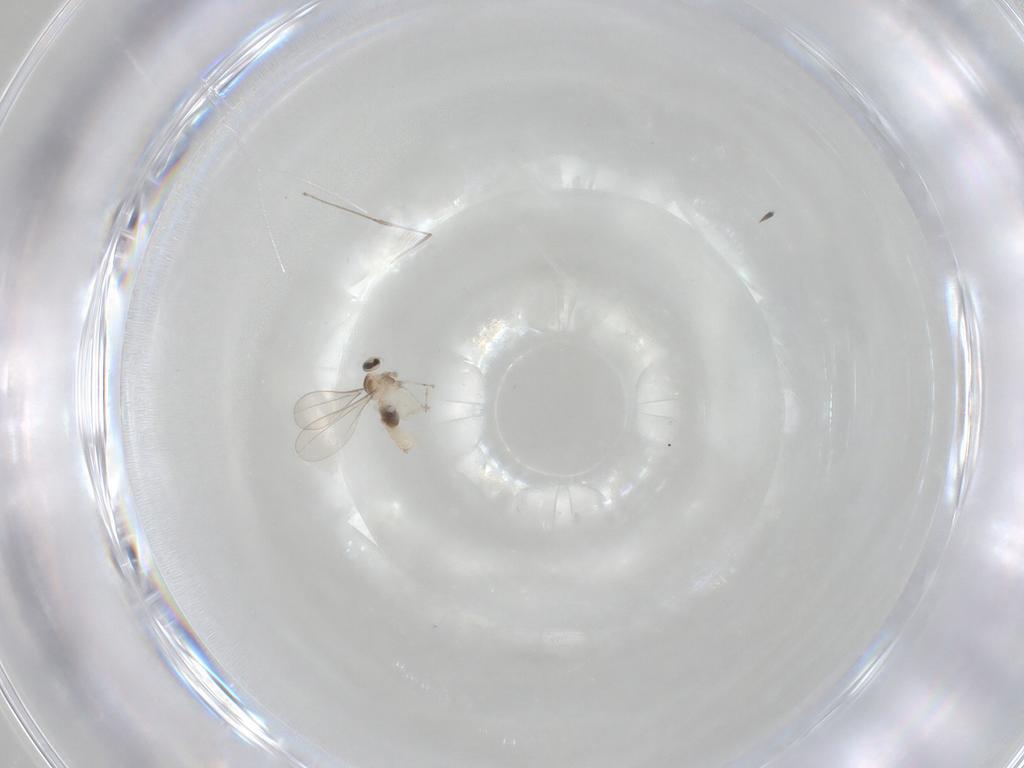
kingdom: Animalia
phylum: Arthropoda
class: Insecta
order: Diptera
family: Cecidomyiidae
